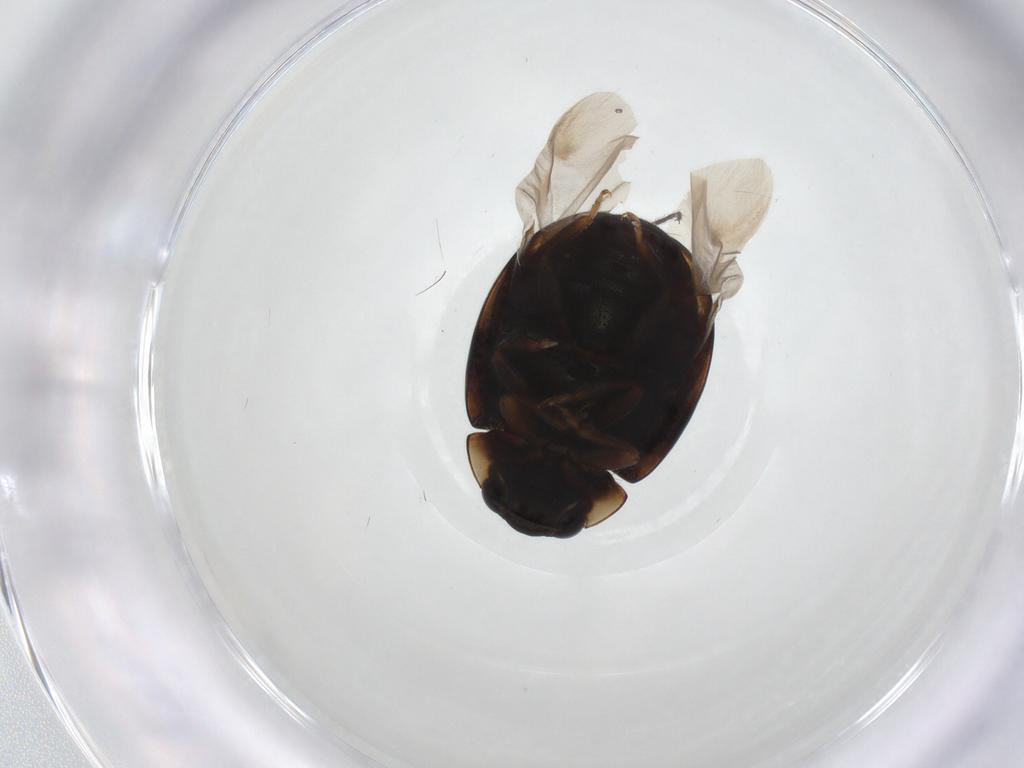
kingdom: Animalia
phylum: Arthropoda
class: Insecta
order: Coleoptera
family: Coccinellidae
